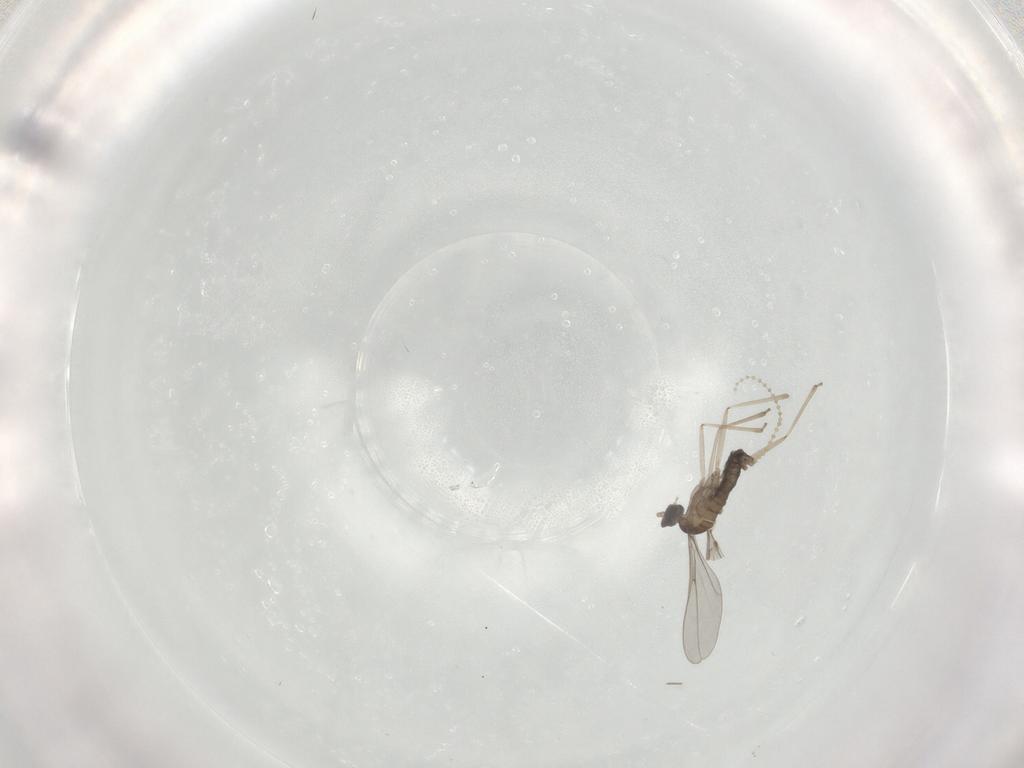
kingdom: Animalia
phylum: Arthropoda
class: Insecta
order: Diptera
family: Cecidomyiidae
